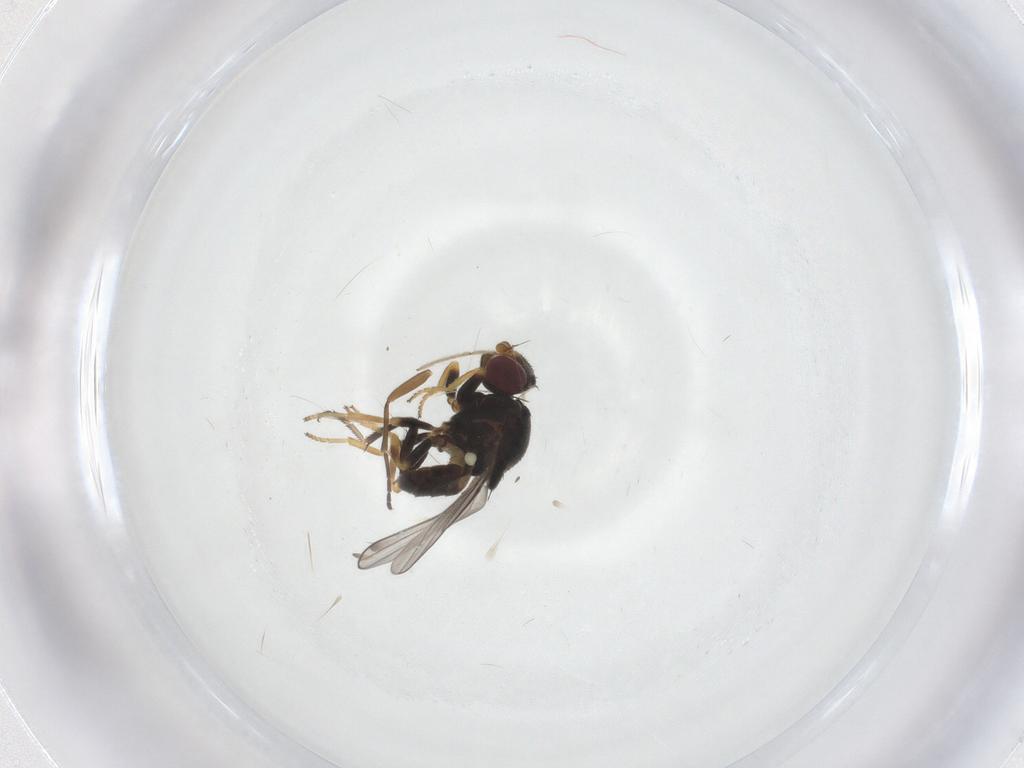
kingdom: Animalia
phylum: Arthropoda
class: Insecta
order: Diptera
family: Chloropidae
